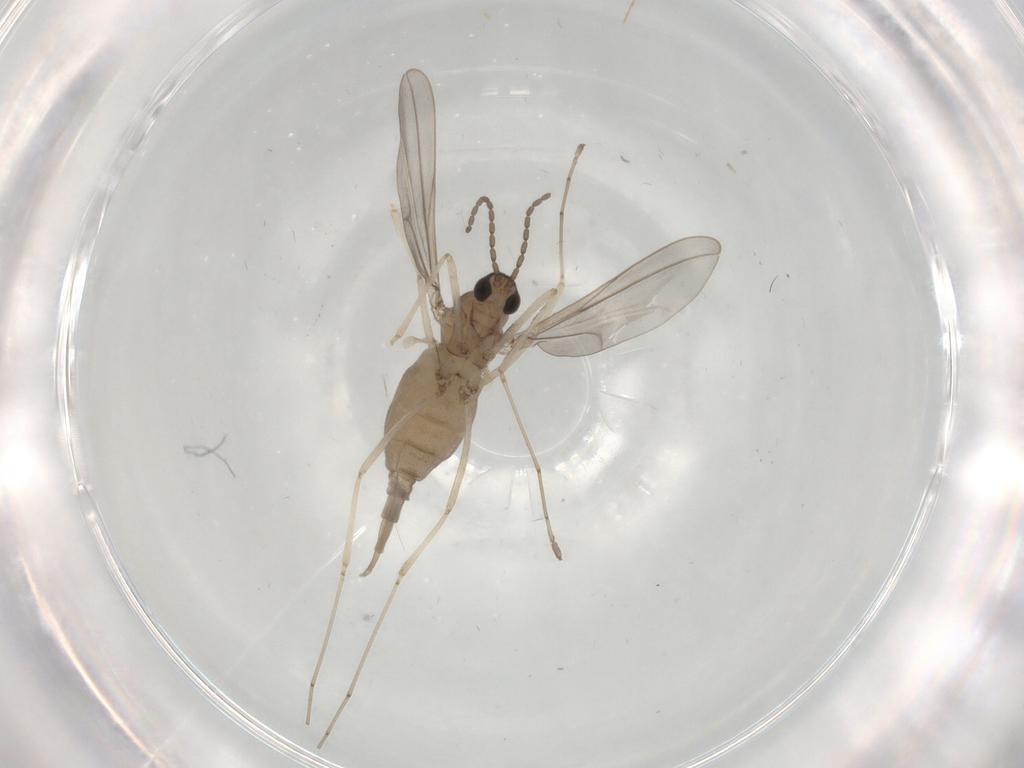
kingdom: Animalia
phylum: Arthropoda
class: Insecta
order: Diptera
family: Cecidomyiidae
